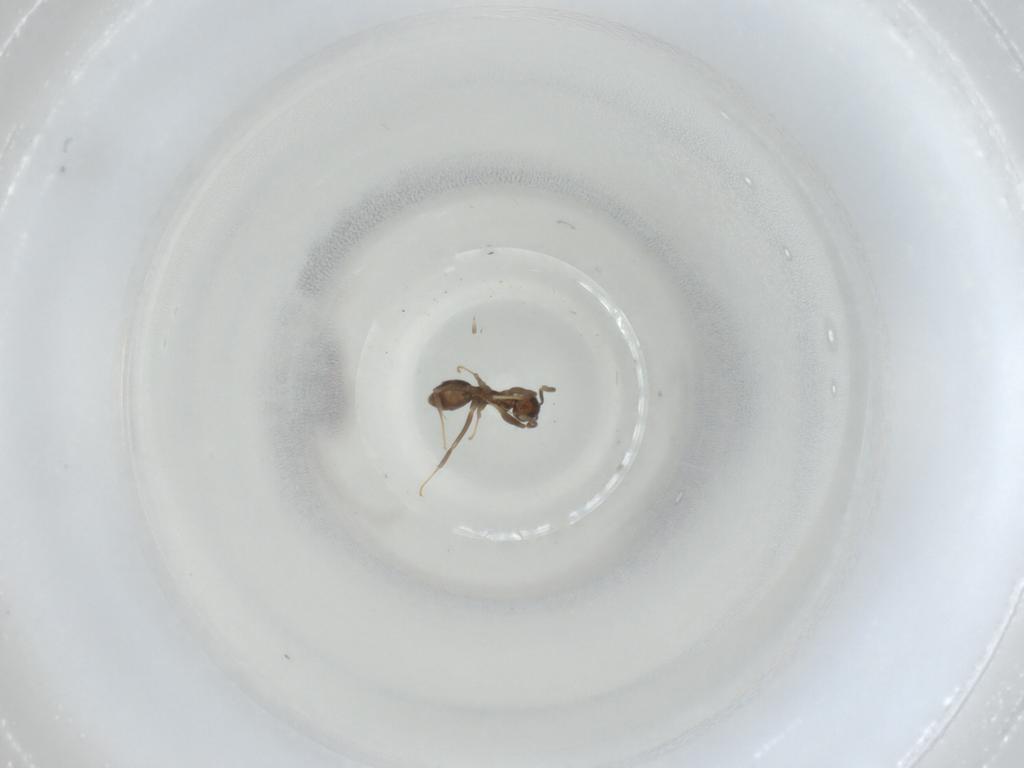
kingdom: Animalia
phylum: Arthropoda
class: Insecta
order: Hymenoptera
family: Formicidae
